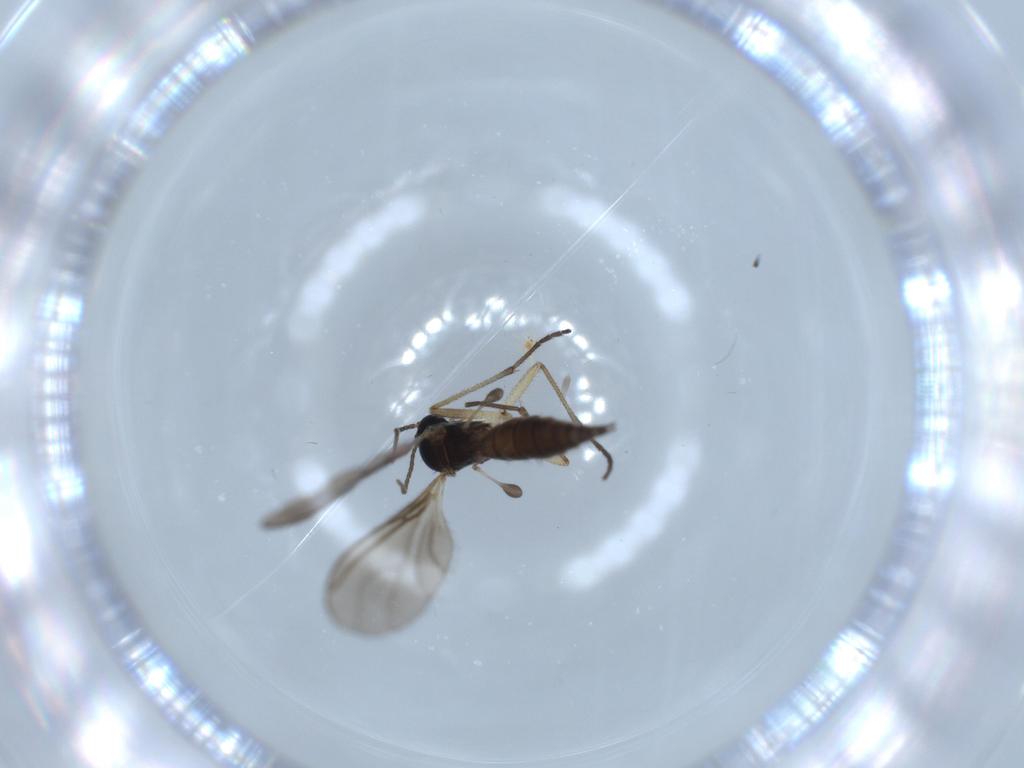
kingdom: Animalia
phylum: Arthropoda
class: Insecta
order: Diptera
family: Sciaridae
